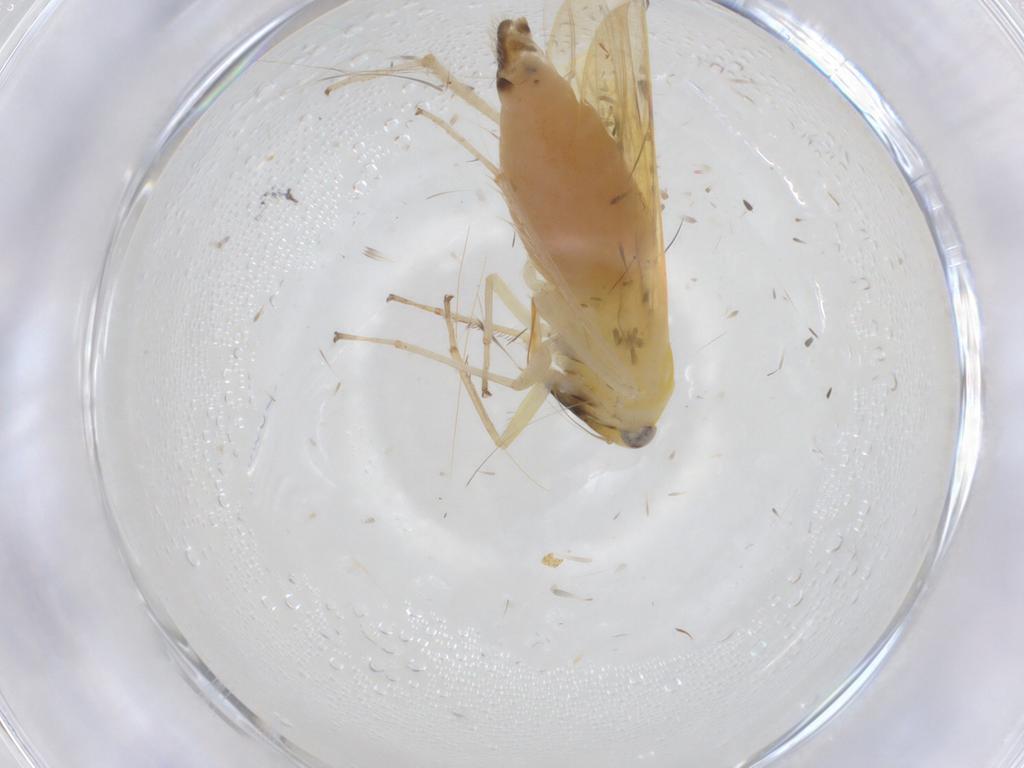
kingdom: Animalia
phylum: Arthropoda
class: Insecta
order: Hemiptera
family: Cicadellidae
